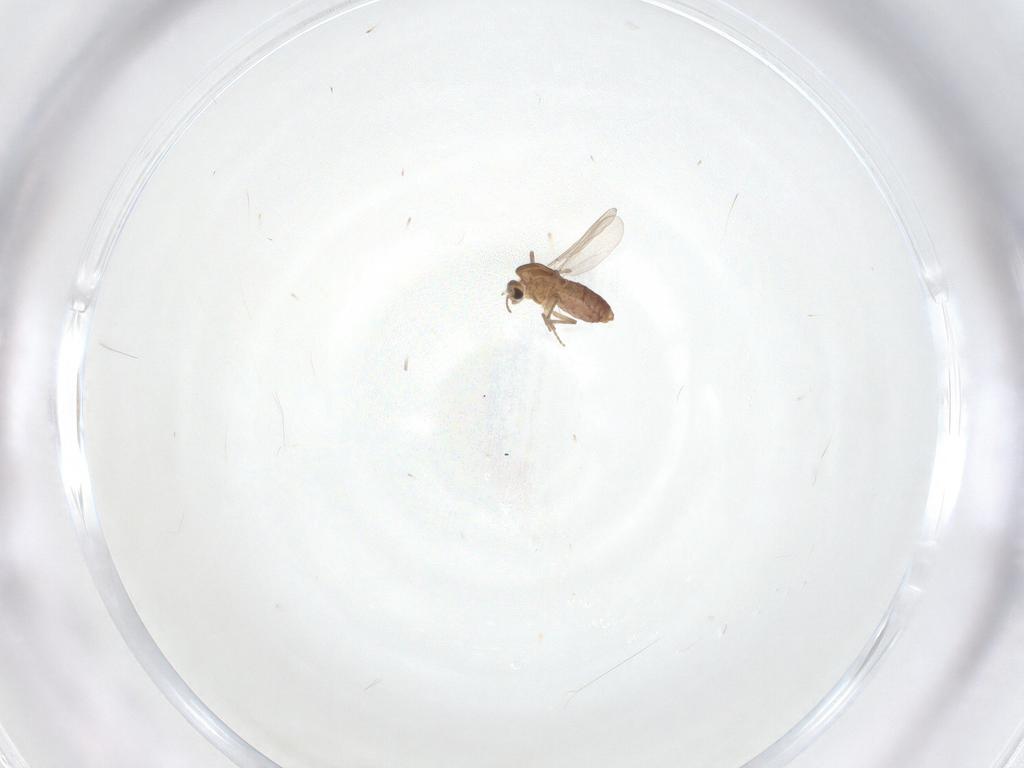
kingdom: Animalia
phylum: Arthropoda
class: Insecta
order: Diptera
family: Chironomidae
